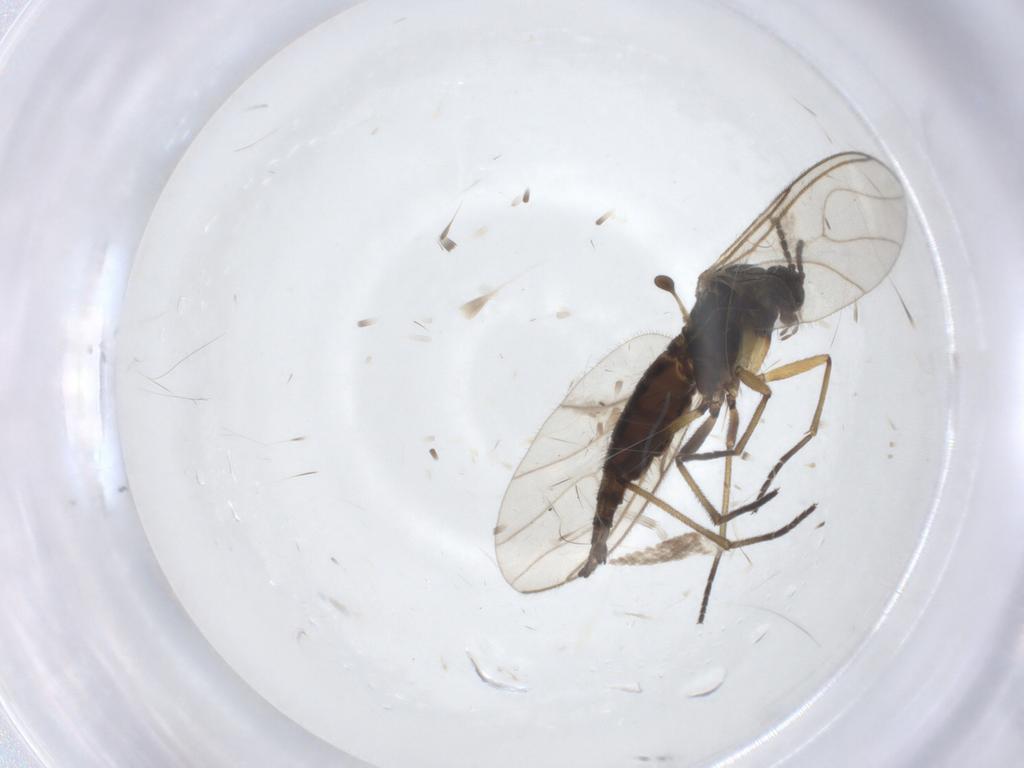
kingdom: Animalia
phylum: Arthropoda
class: Insecta
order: Diptera
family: Sciaridae
